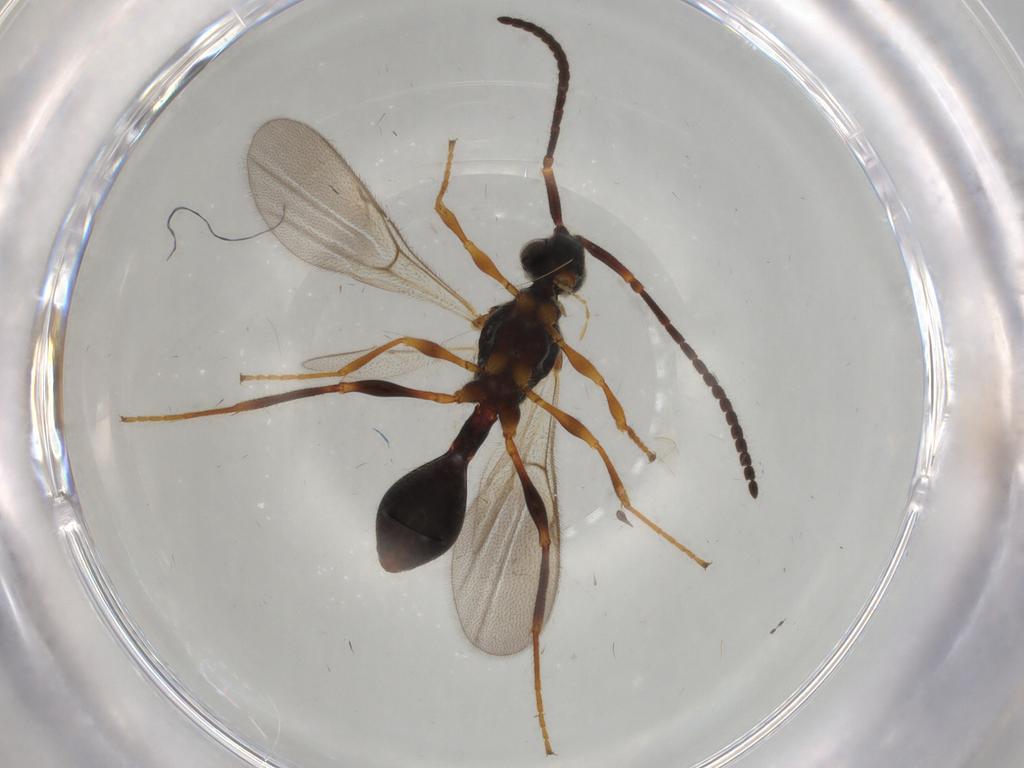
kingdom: Animalia
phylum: Arthropoda
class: Insecta
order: Hymenoptera
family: Diapriidae
